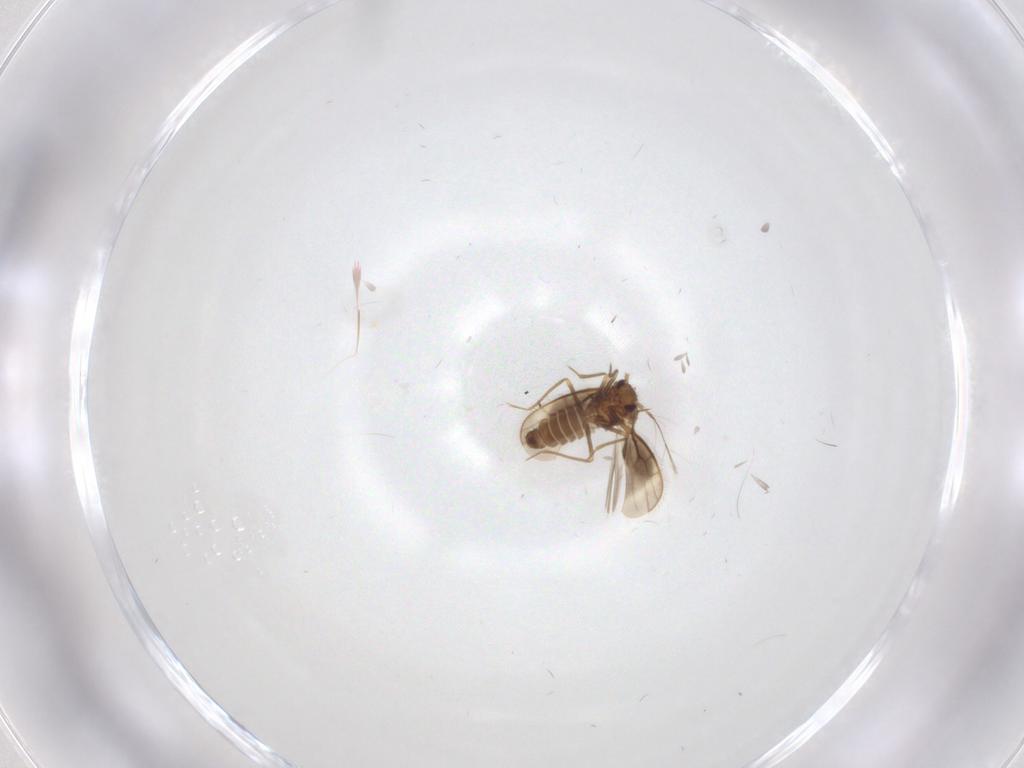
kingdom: Animalia
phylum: Arthropoda
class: Insecta
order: Hemiptera
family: Schizopteridae
